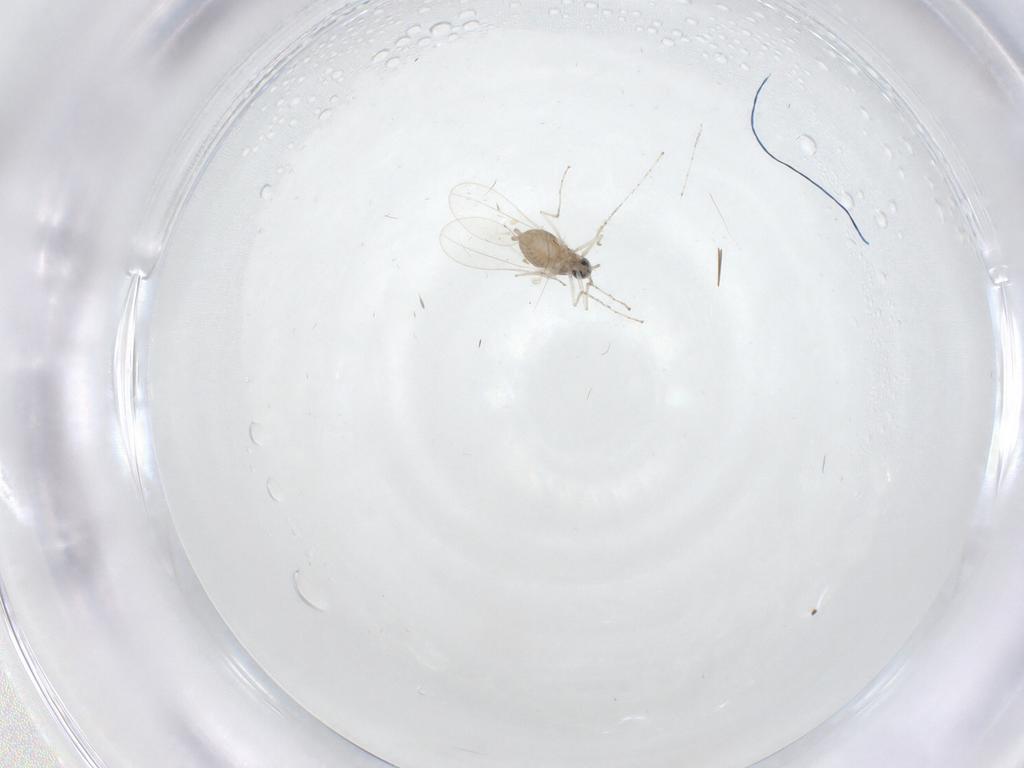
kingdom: Animalia
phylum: Arthropoda
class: Insecta
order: Diptera
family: Cecidomyiidae
